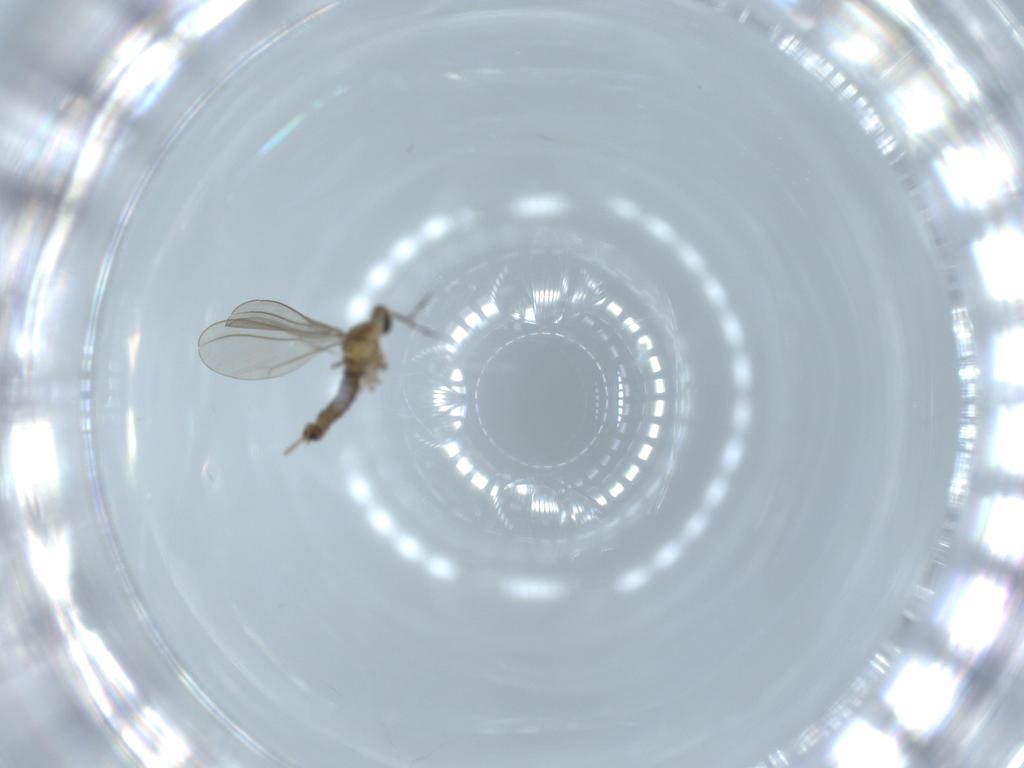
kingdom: Animalia
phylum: Arthropoda
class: Insecta
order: Diptera
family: Cecidomyiidae
